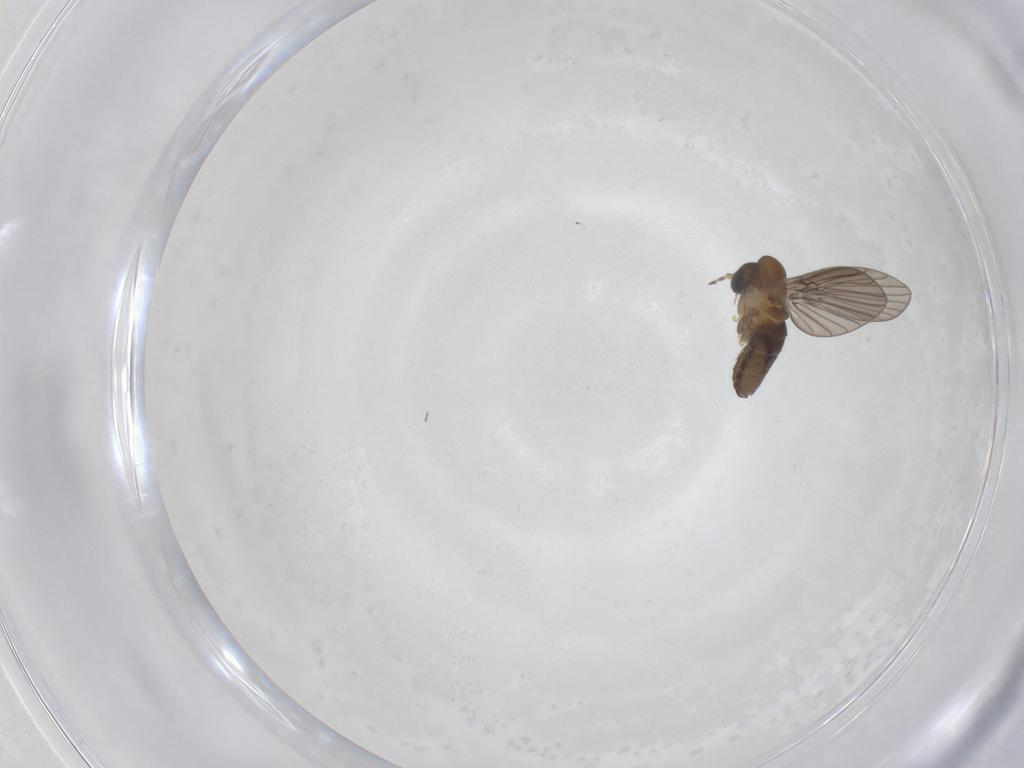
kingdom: Animalia
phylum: Arthropoda
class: Insecta
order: Diptera
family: Psychodidae
